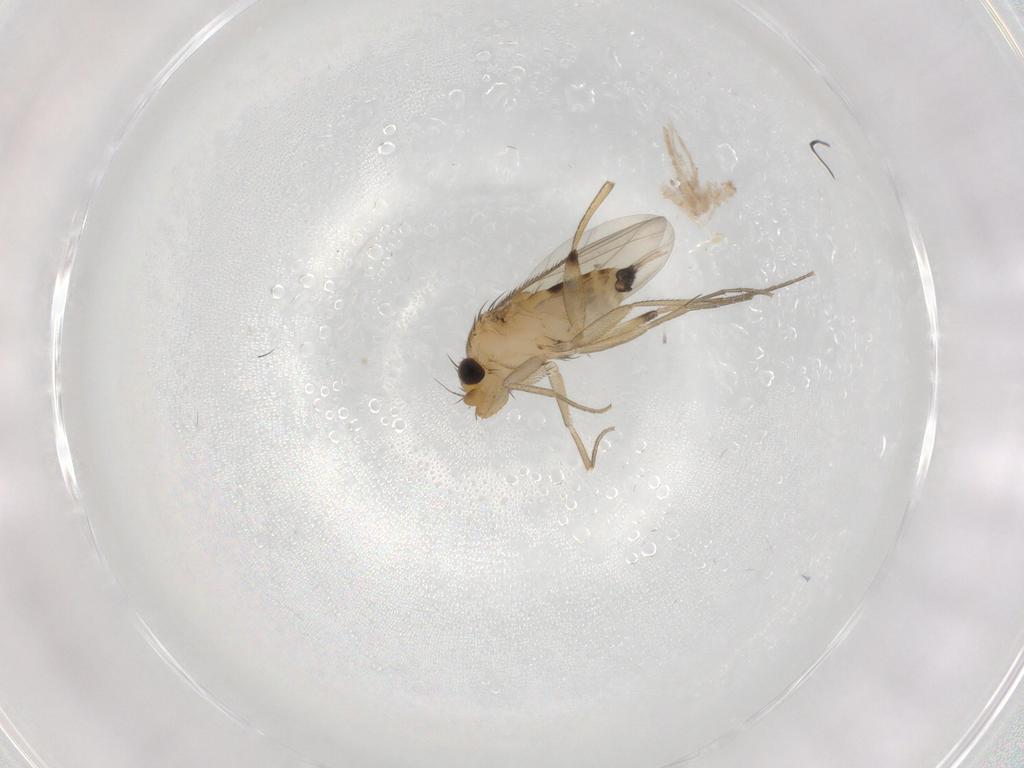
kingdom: Animalia
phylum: Arthropoda
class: Insecta
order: Diptera
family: Phoridae
